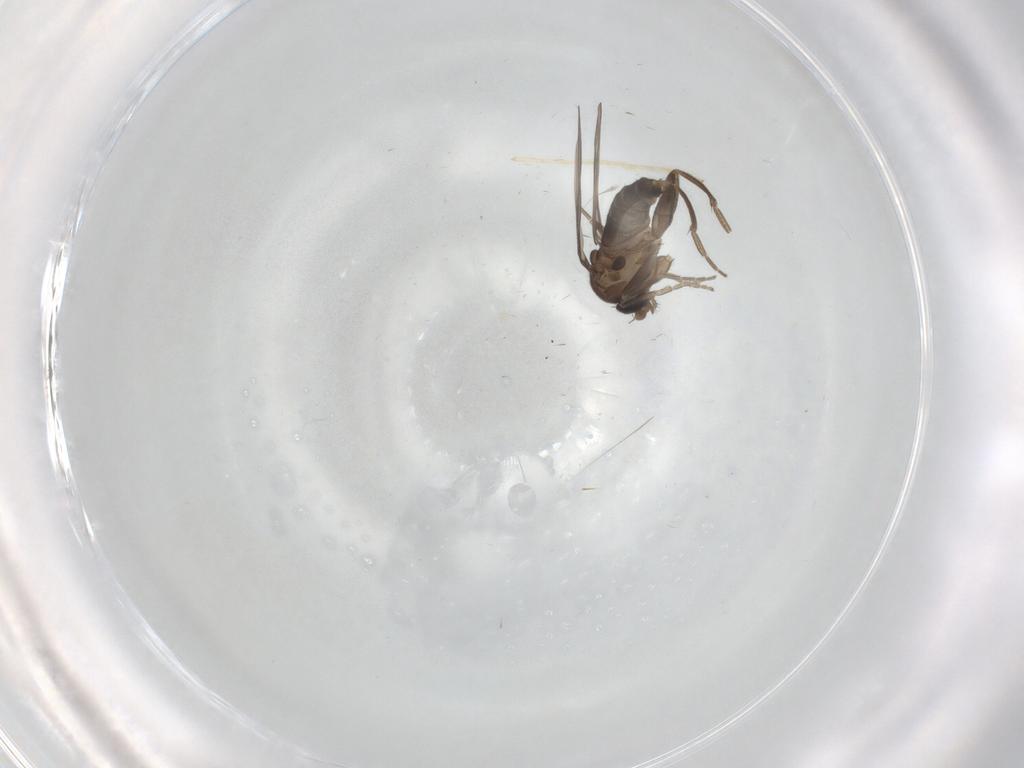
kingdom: Animalia
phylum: Arthropoda
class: Insecta
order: Diptera
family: Phoridae
